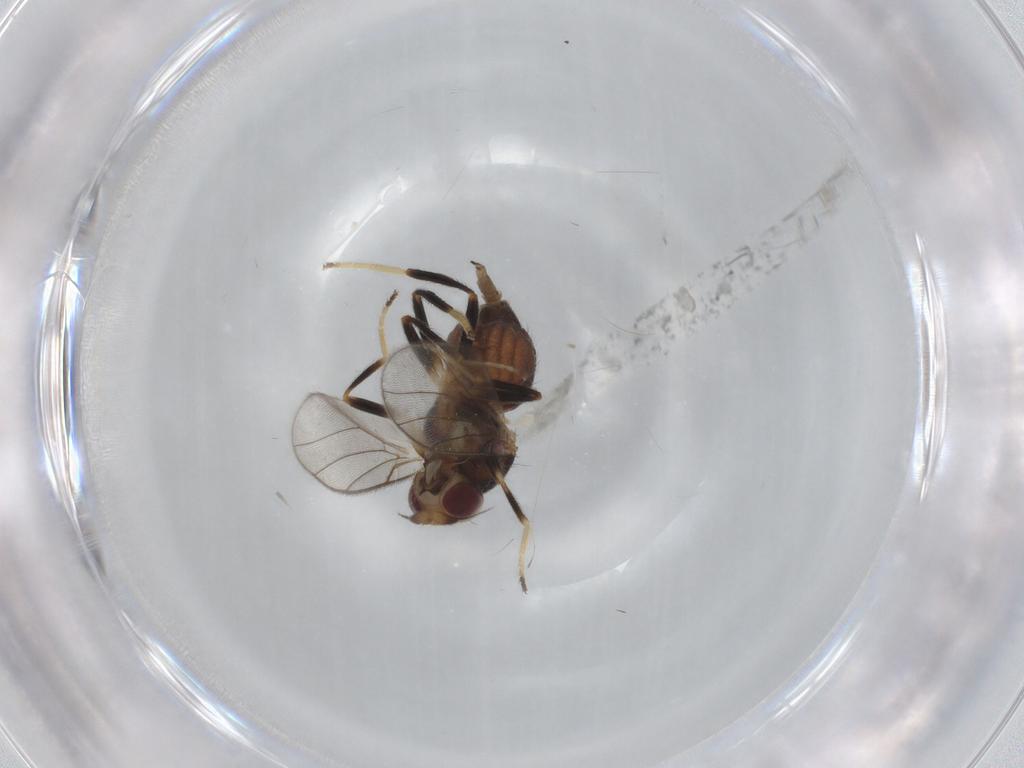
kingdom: Animalia
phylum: Arthropoda
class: Insecta
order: Diptera
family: Chloropidae
